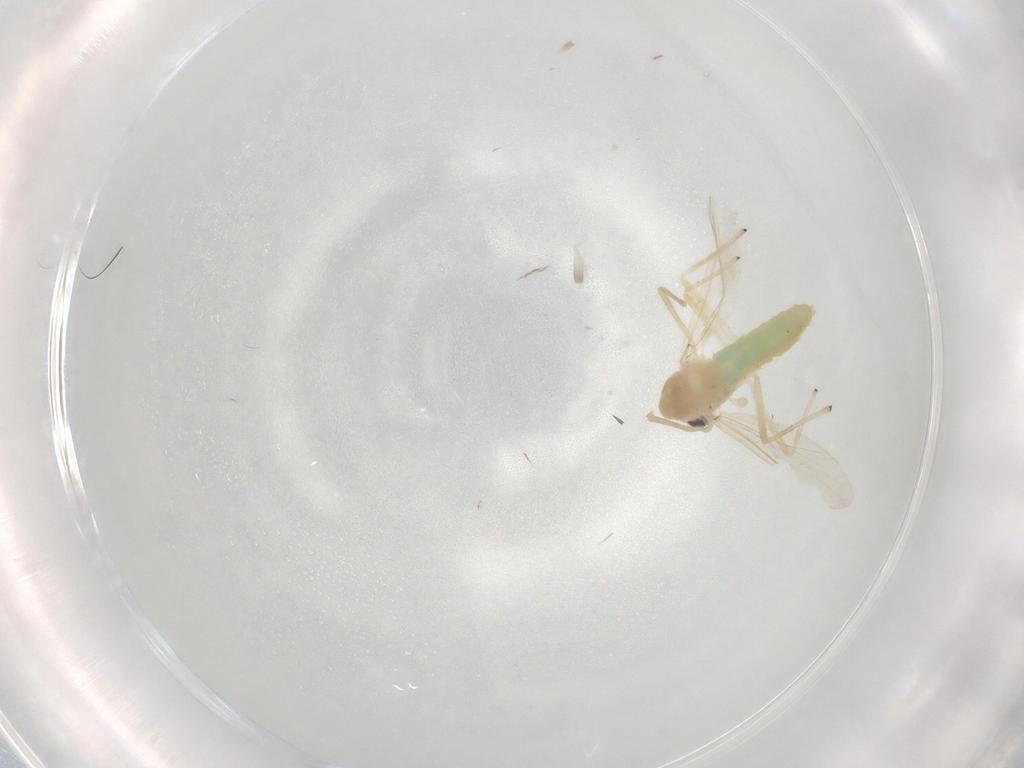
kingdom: Animalia
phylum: Arthropoda
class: Insecta
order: Diptera
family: Chironomidae
